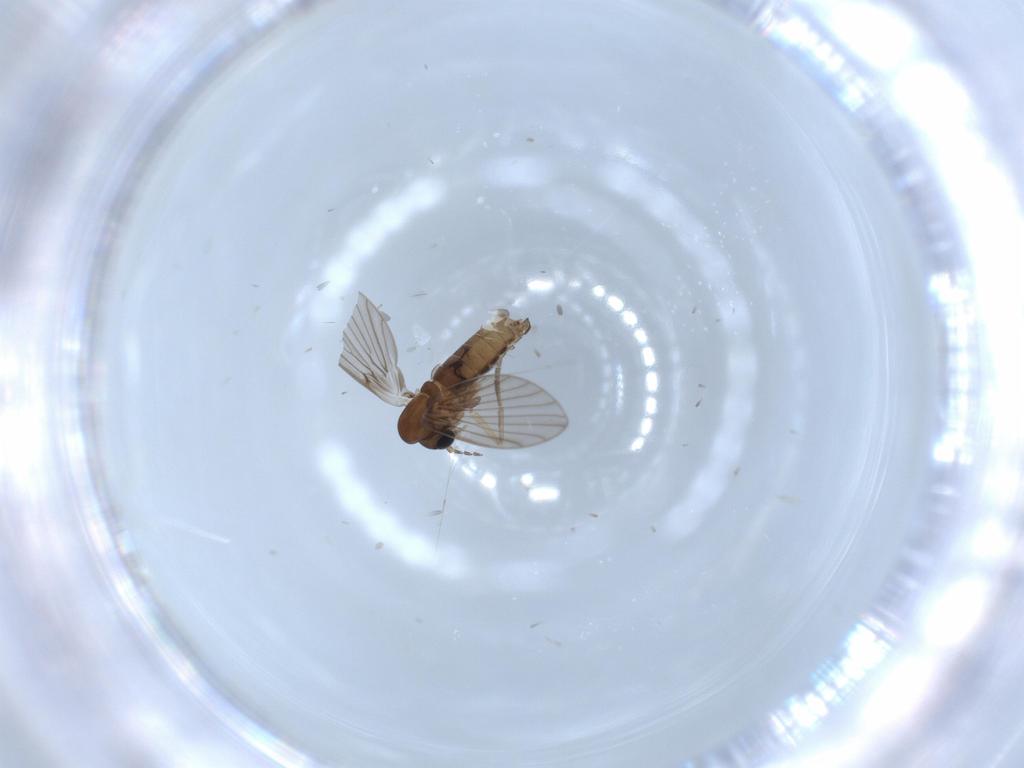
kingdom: Animalia
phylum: Arthropoda
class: Insecta
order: Diptera
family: Psychodidae
